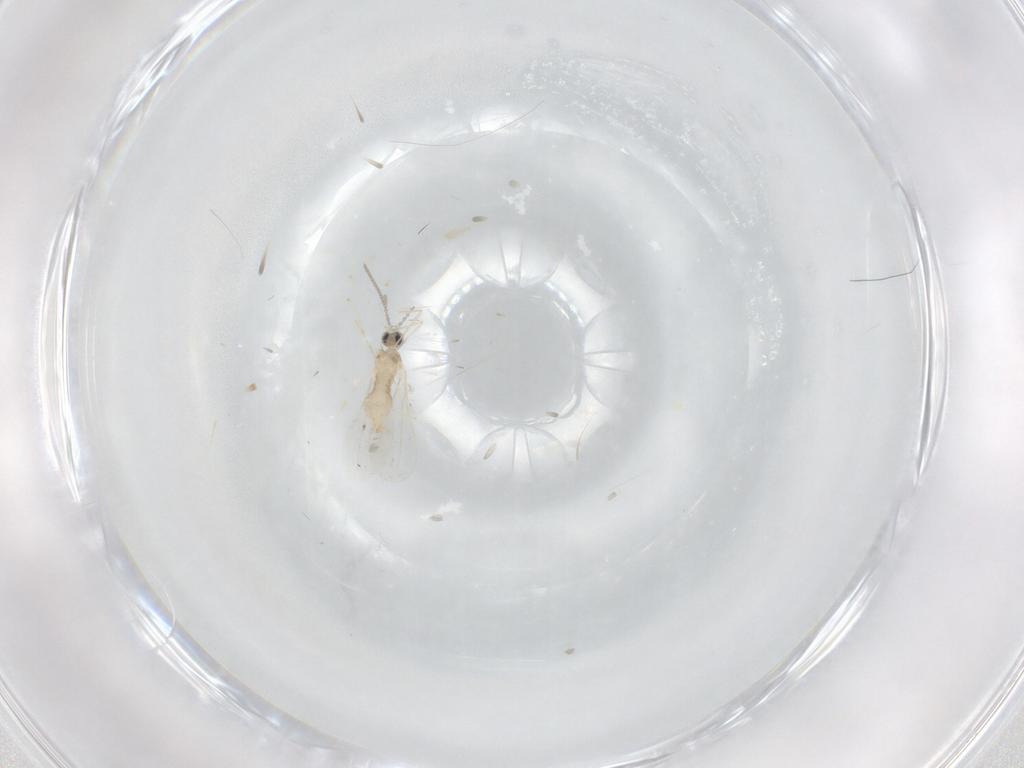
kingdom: Animalia
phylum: Arthropoda
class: Insecta
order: Diptera
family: Cecidomyiidae
